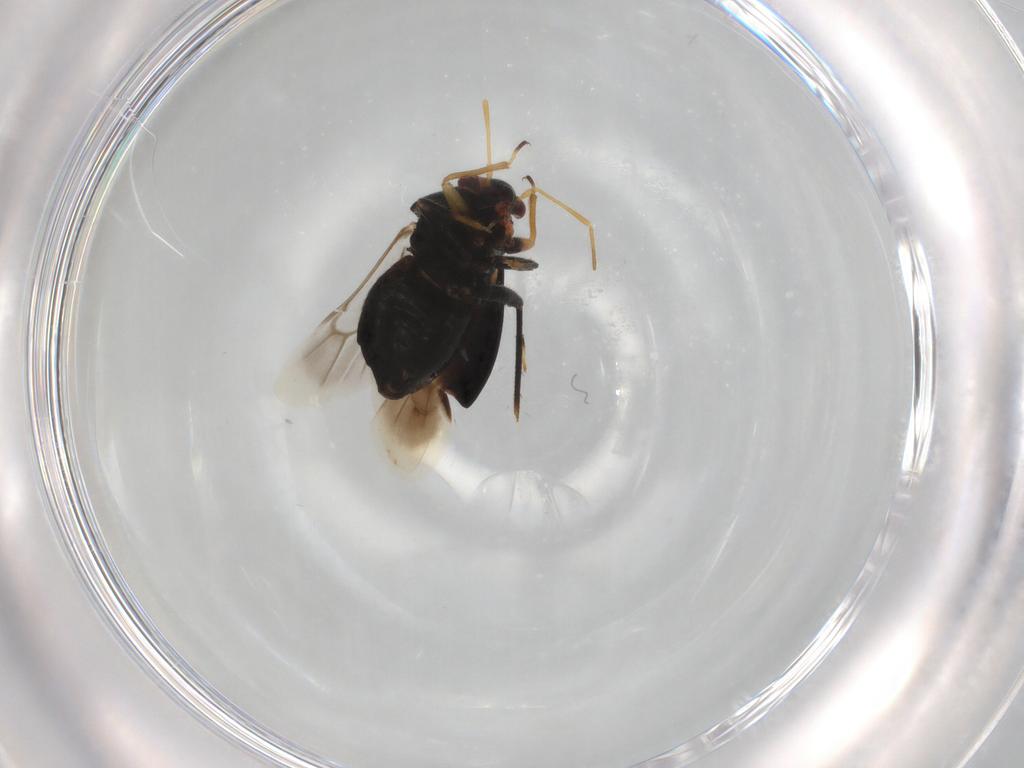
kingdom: Animalia
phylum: Arthropoda
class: Insecta
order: Hemiptera
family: Miridae
